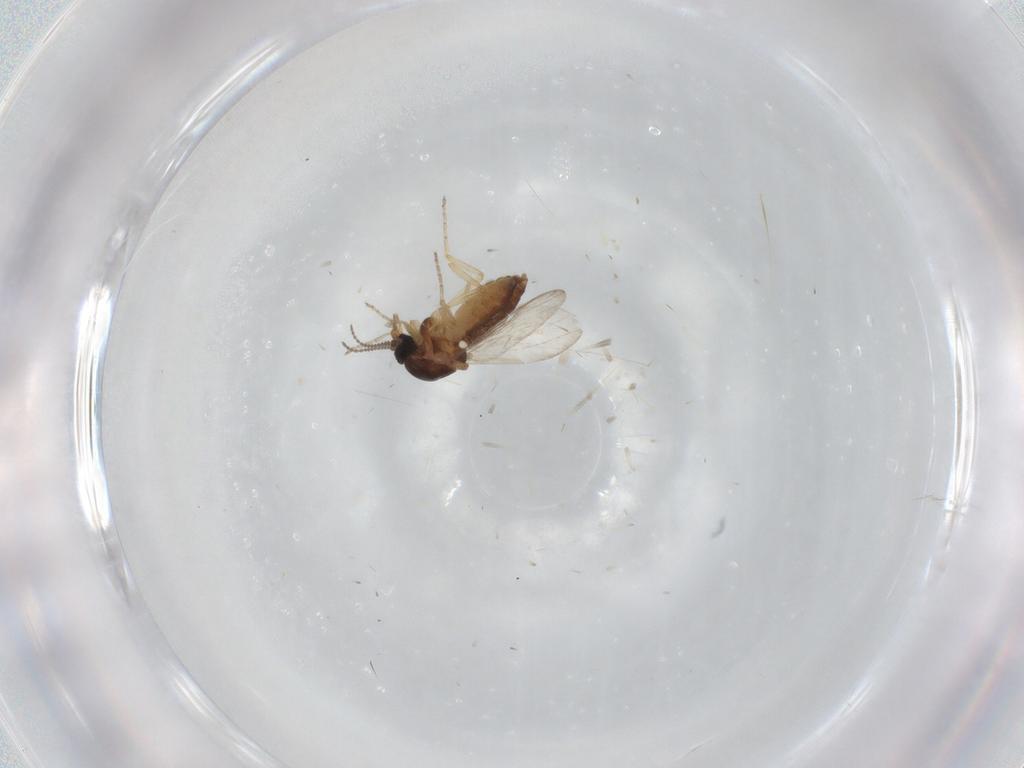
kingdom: Animalia
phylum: Arthropoda
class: Insecta
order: Diptera
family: Ceratopogonidae
